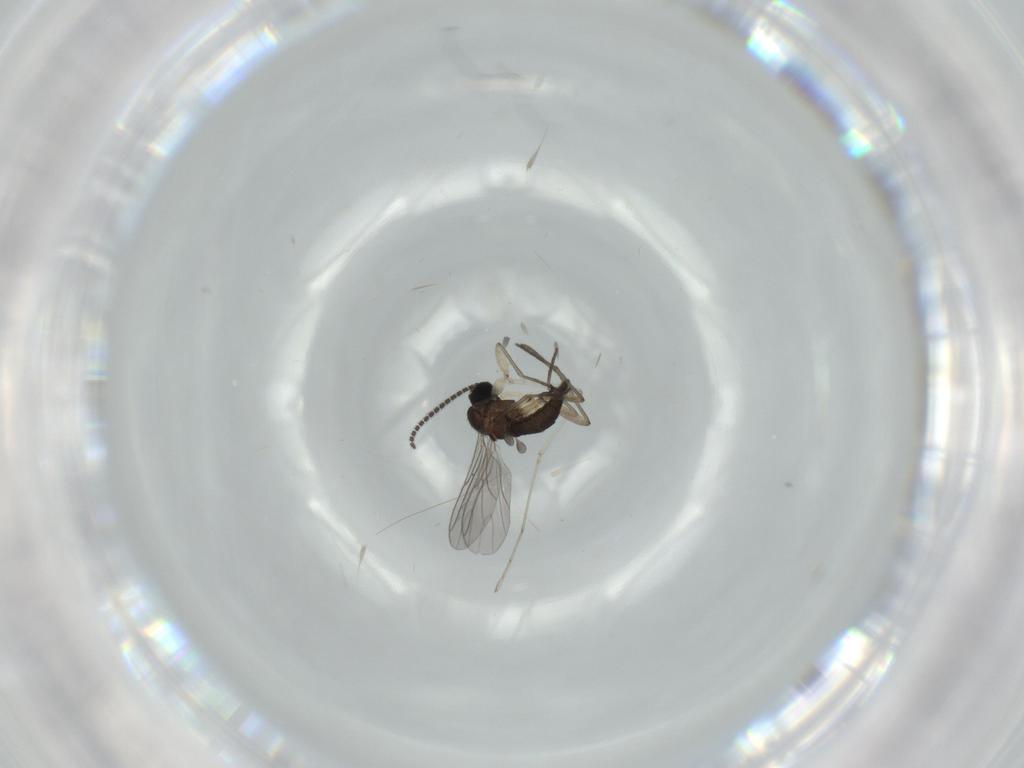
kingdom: Animalia
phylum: Arthropoda
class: Insecta
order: Diptera
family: Sciaridae
